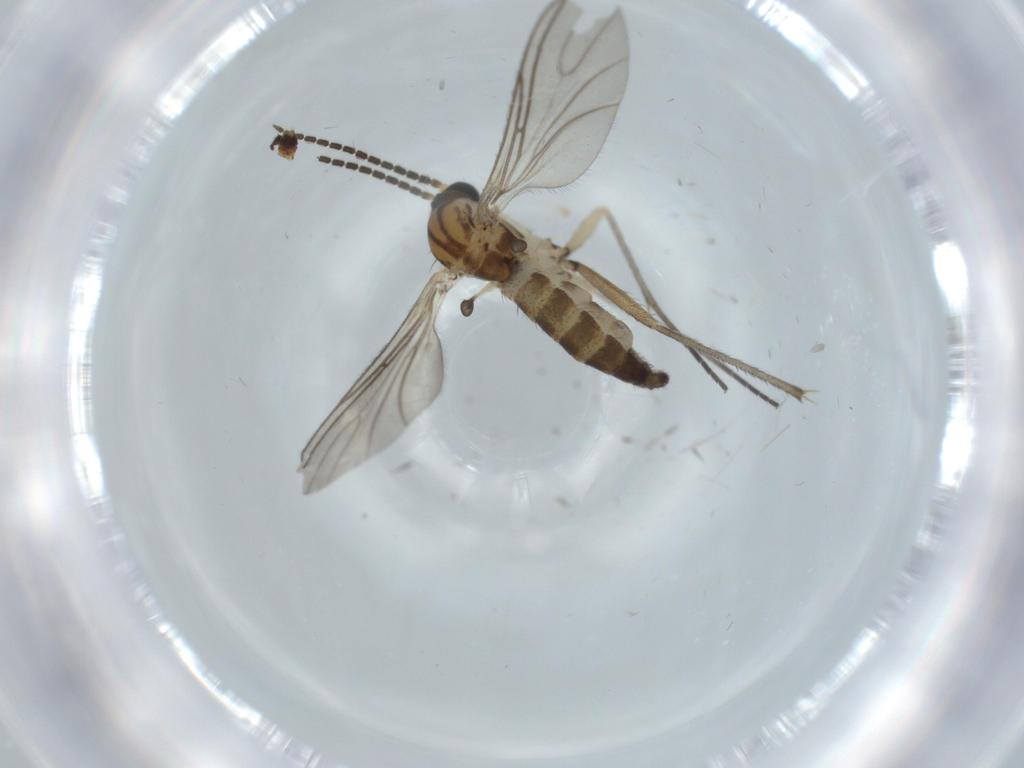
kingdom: Animalia
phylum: Arthropoda
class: Insecta
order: Diptera
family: Sciaridae
